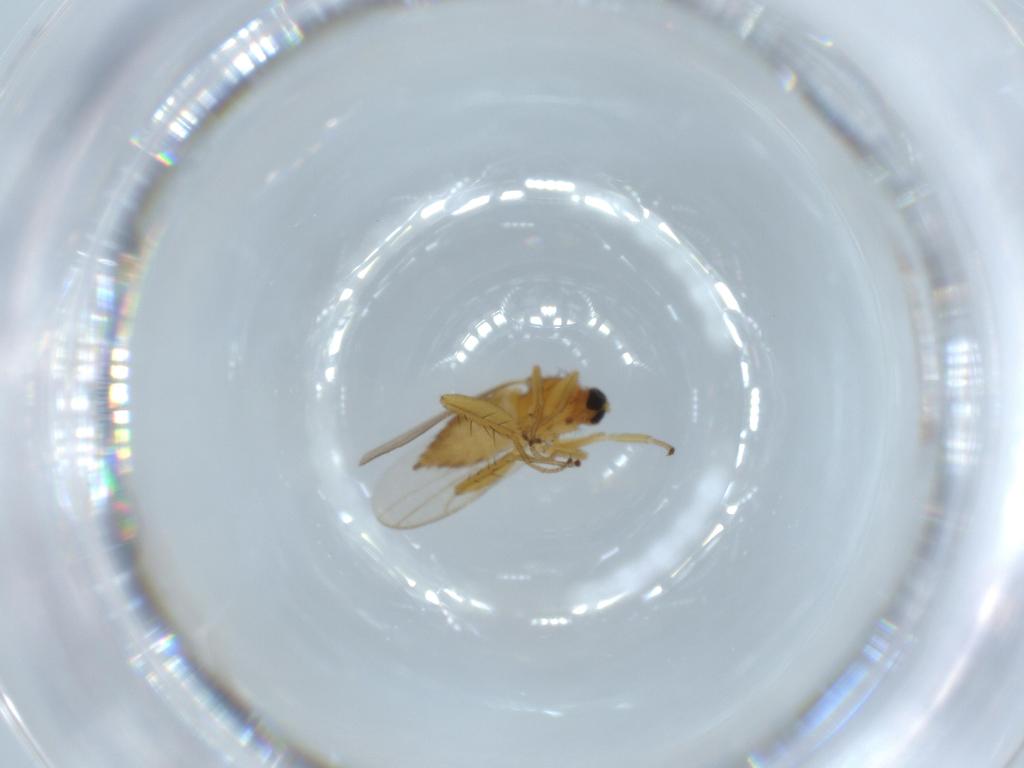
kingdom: Animalia
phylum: Arthropoda
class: Insecta
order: Diptera
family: Hybotidae
